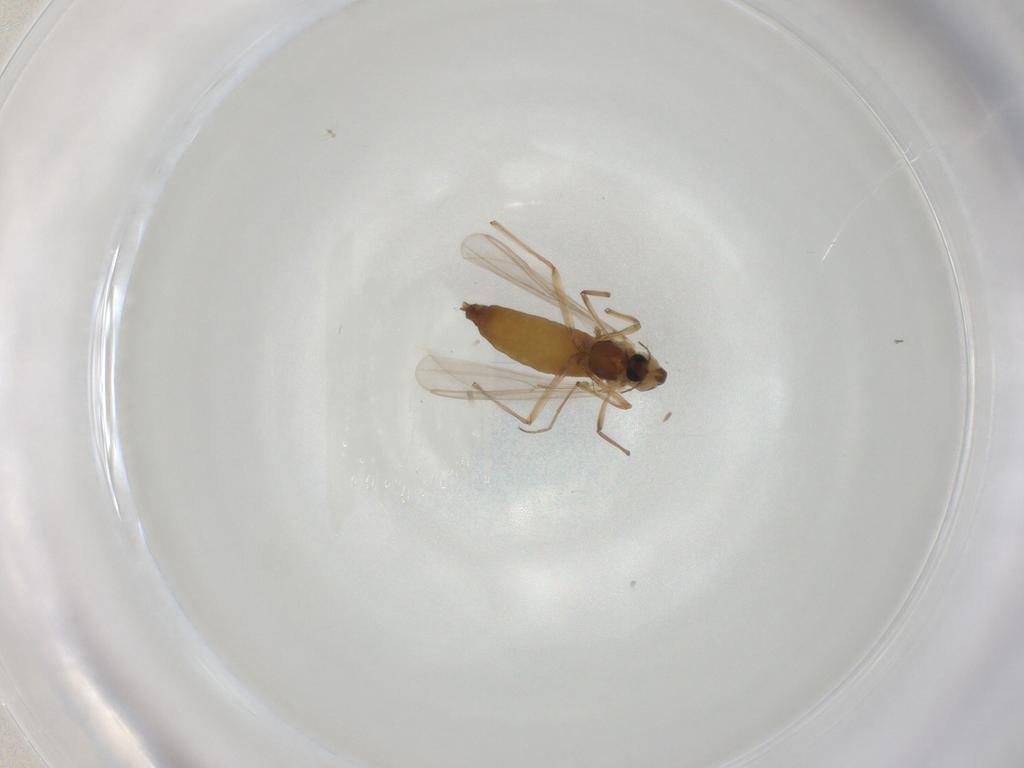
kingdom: Animalia
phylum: Arthropoda
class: Insecta
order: Diptera
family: Chironomidae
